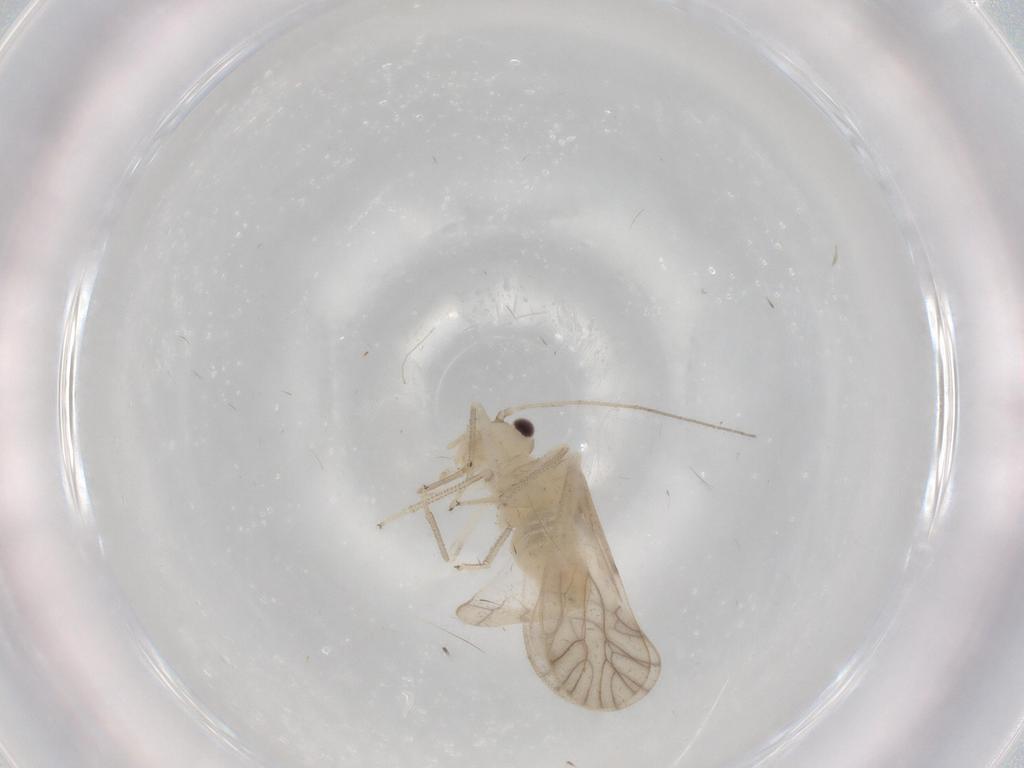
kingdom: Animalia
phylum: Arthropoda
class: Insecta
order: Psocodea
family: Caeciliusidae
